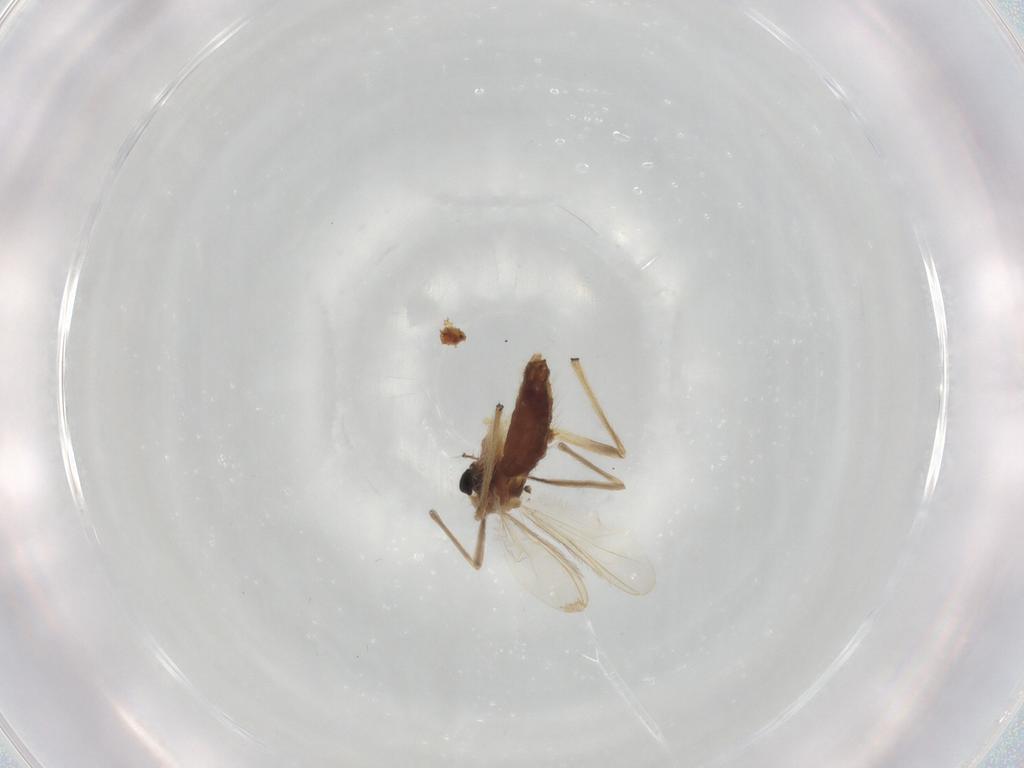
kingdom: Animalia
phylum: Arthropoda
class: Insecta
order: Diptera
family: Chironomidae
